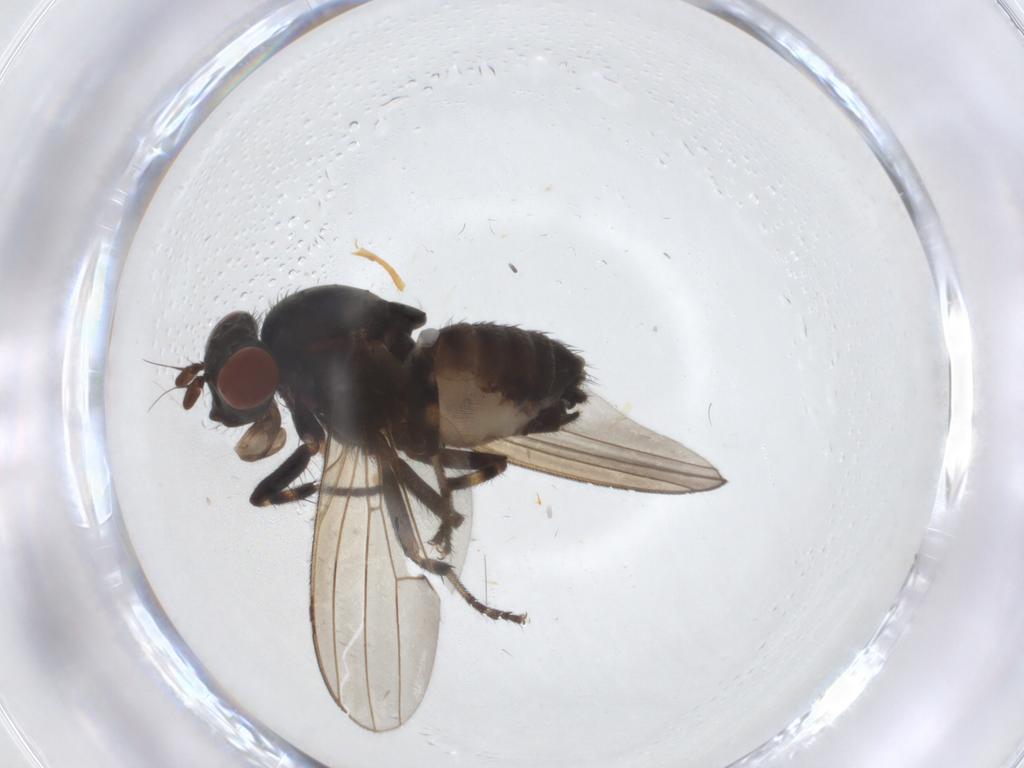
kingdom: Animalia
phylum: Arthropoda
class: Insecta
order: Diptera
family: Lauxaniidae
